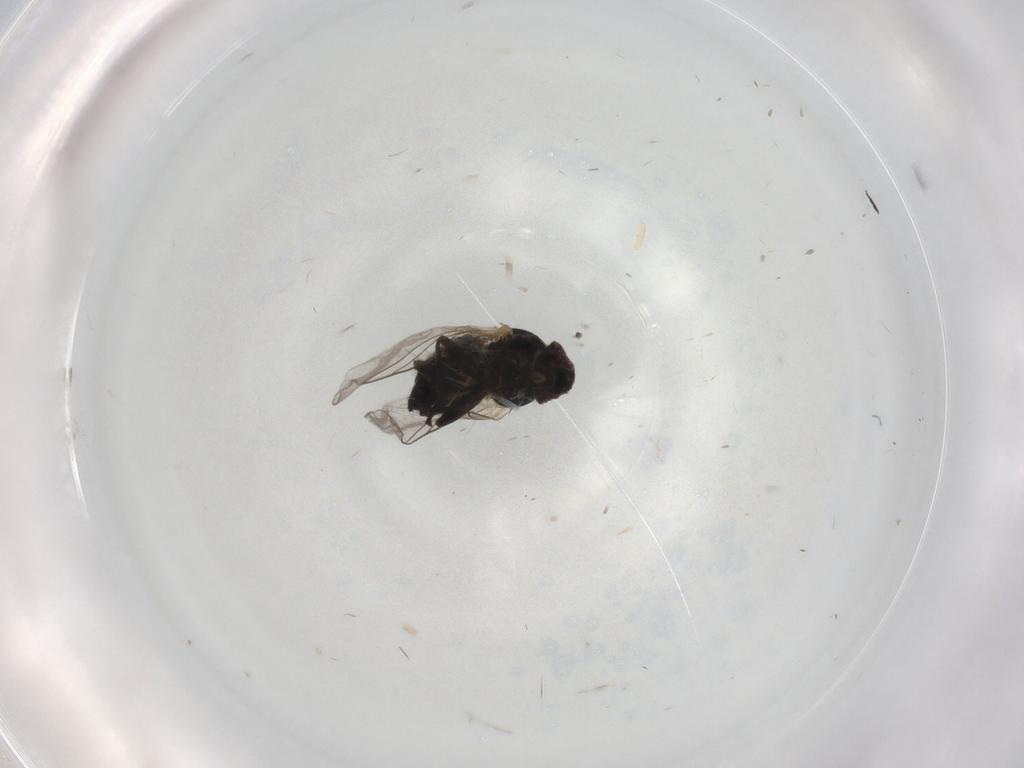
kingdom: Animalia
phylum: Arthropoda
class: Insecta
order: Diptera
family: Agromyzidae
